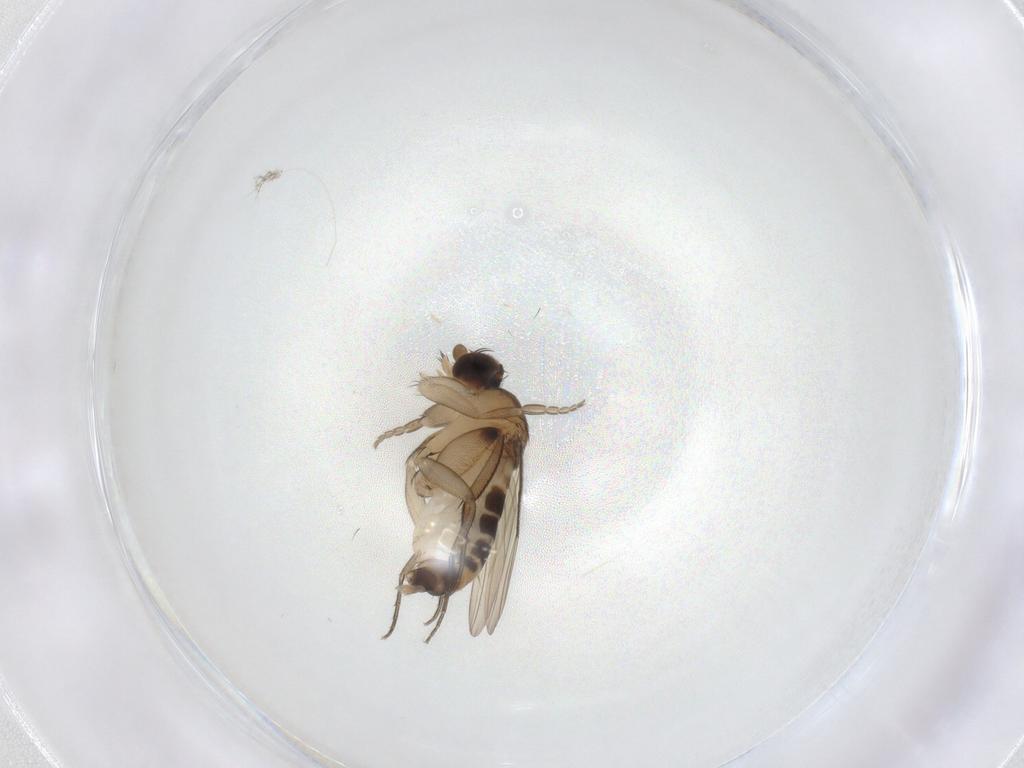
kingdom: Animalia
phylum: Arthropoda
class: Insecta
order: Diptera
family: Phoridae
